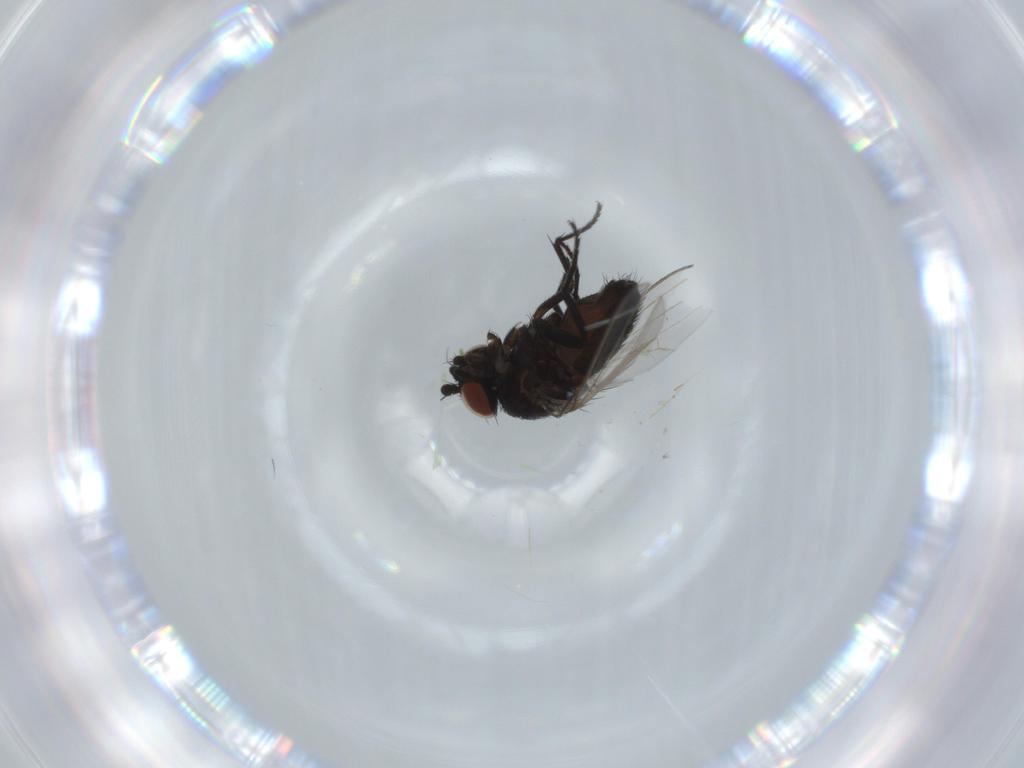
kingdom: Animalia
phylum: Arthropoda
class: Insecta
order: Diptera
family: Milichiidae
